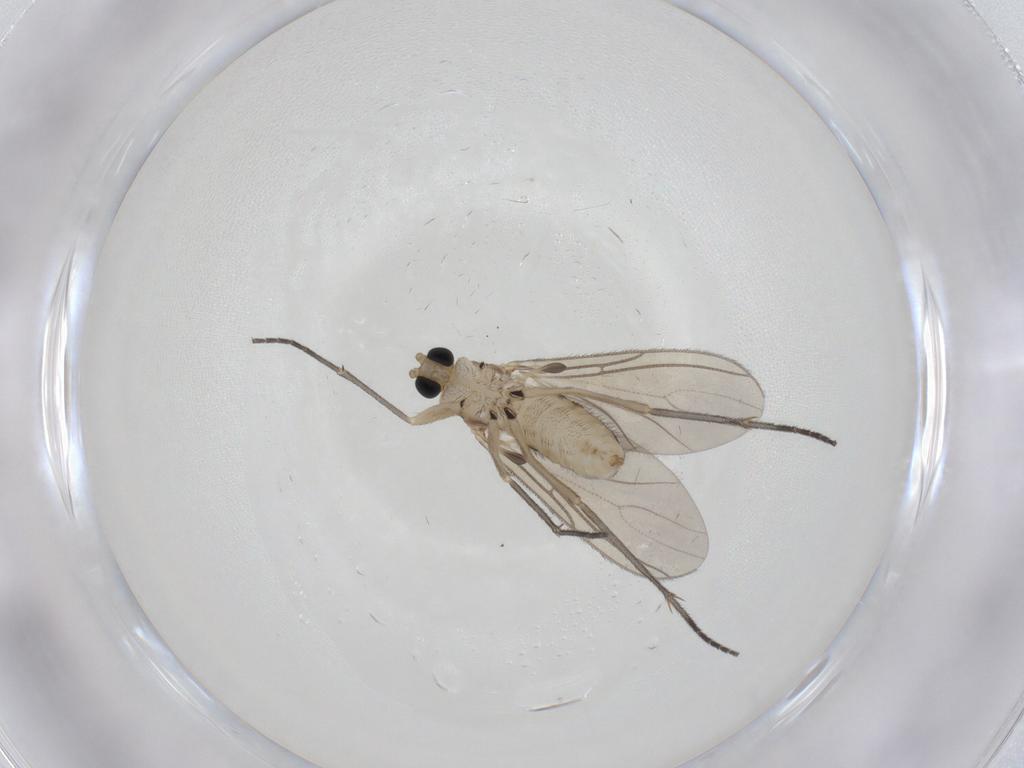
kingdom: Animalia
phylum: Arthropoda
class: Insecta
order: Diptera
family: Sciaridae
